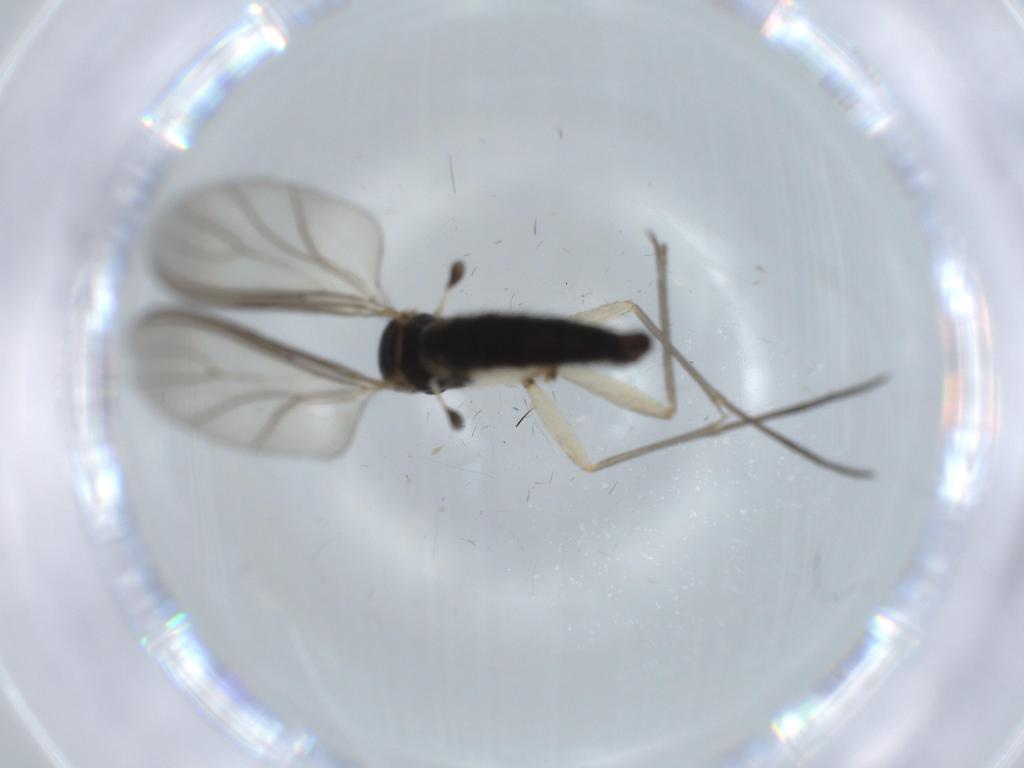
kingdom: Animalia
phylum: Arthropoda
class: Insecta
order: Diptera
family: Sciaridae
